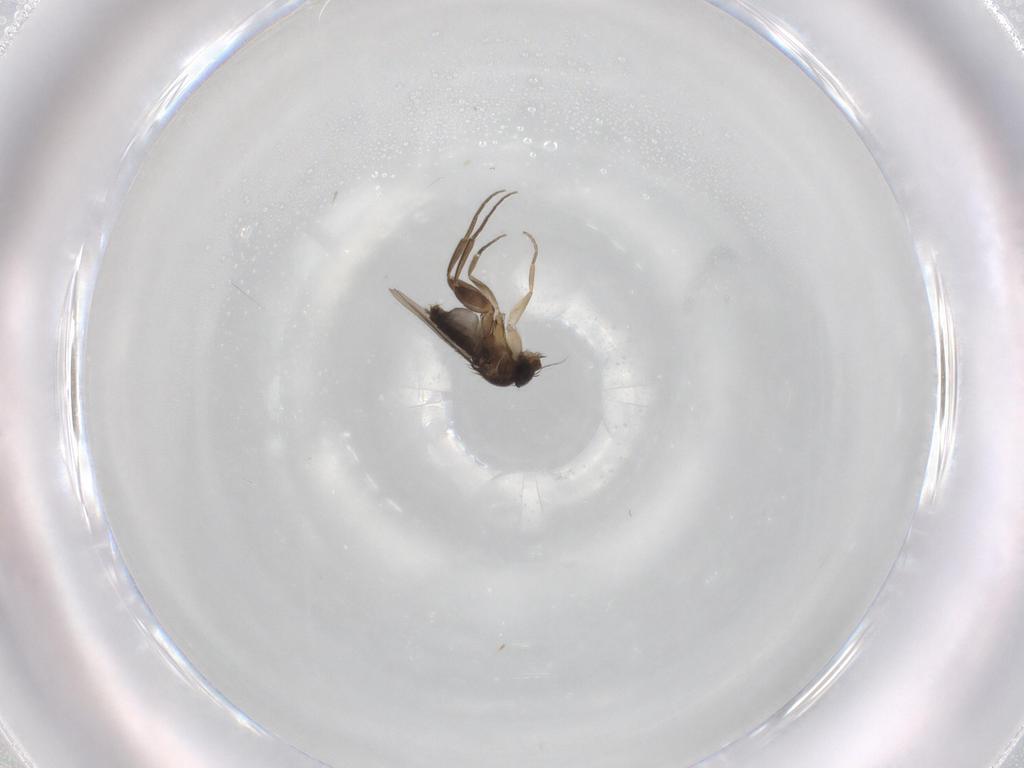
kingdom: Animalia
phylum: Arthropoda
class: Insecta
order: Diptera
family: Phoridae
